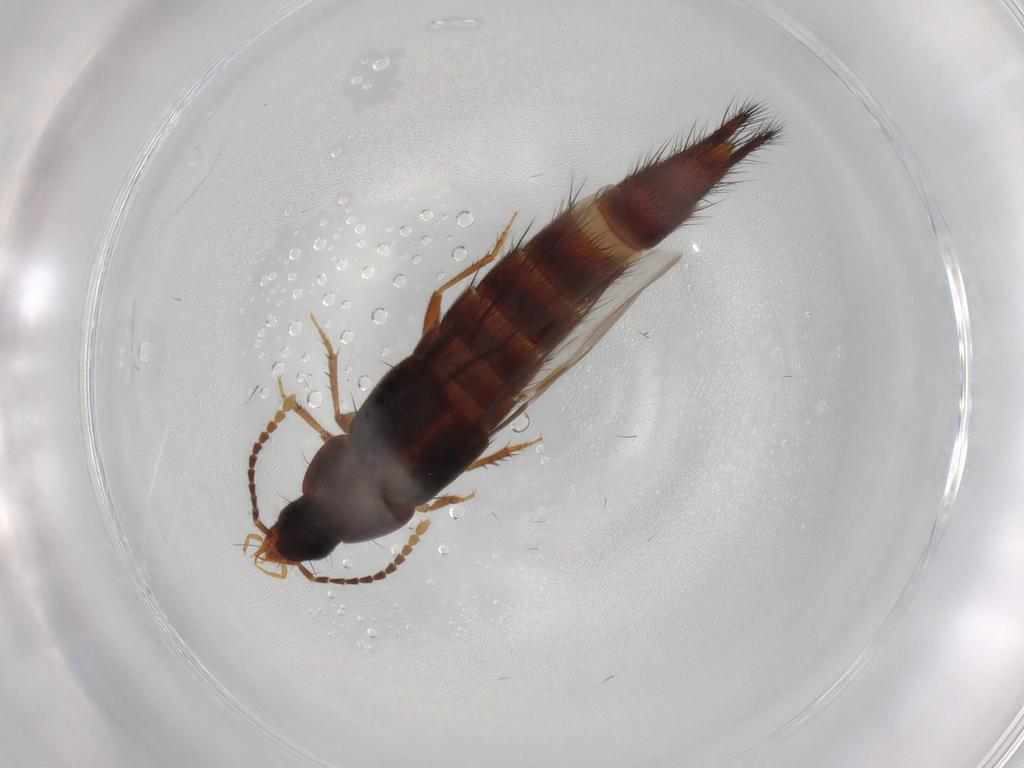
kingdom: Animalia
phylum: Arthropoda
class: Insecta
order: Coleoptera
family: Staphylinidae
